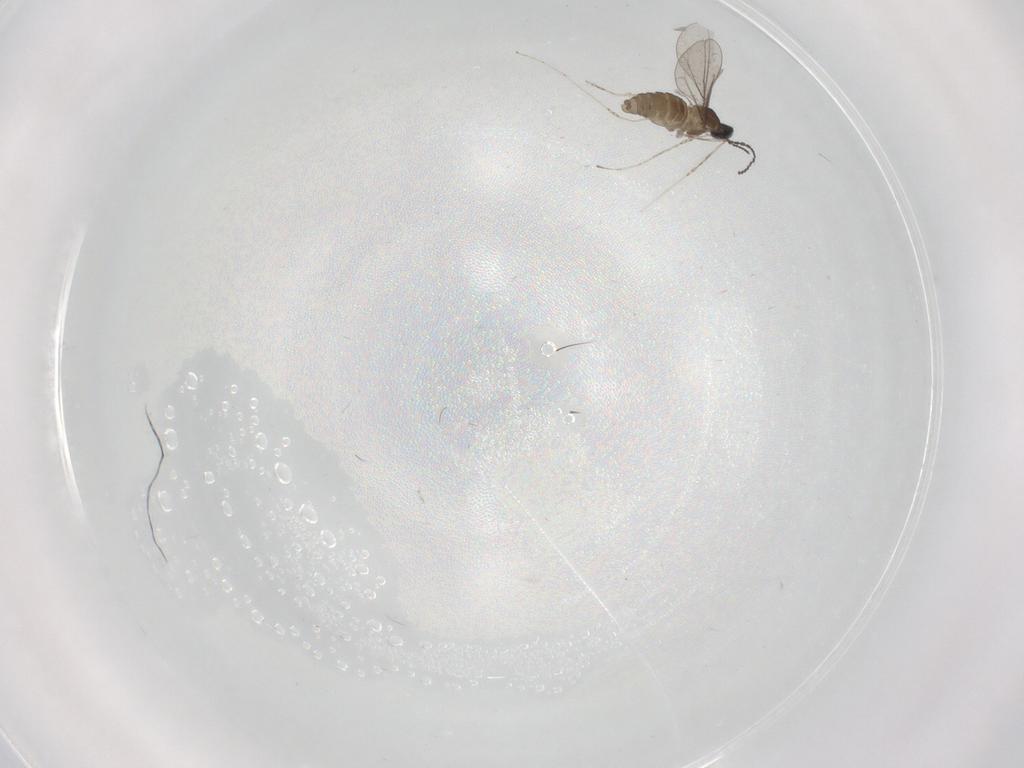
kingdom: Animalia
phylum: Arthropoda
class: Insecta
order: Diptera
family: Cecidomyiidae
